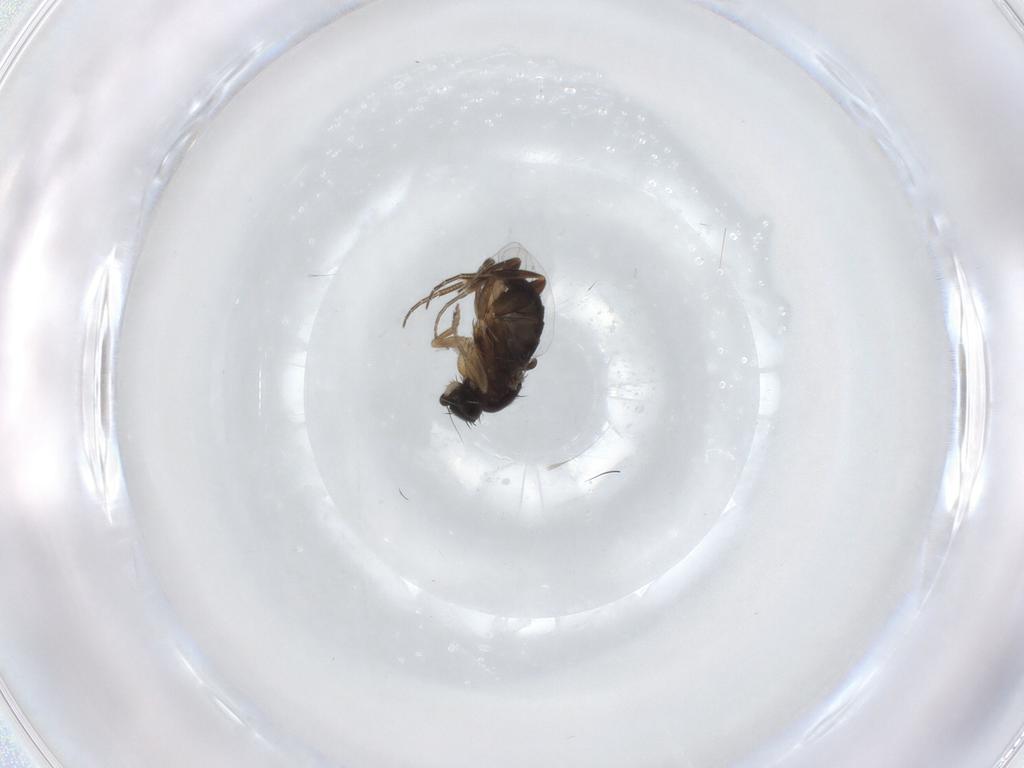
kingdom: Animalia
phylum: Arthropoda
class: Insecta
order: Diptera
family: Phoridae
